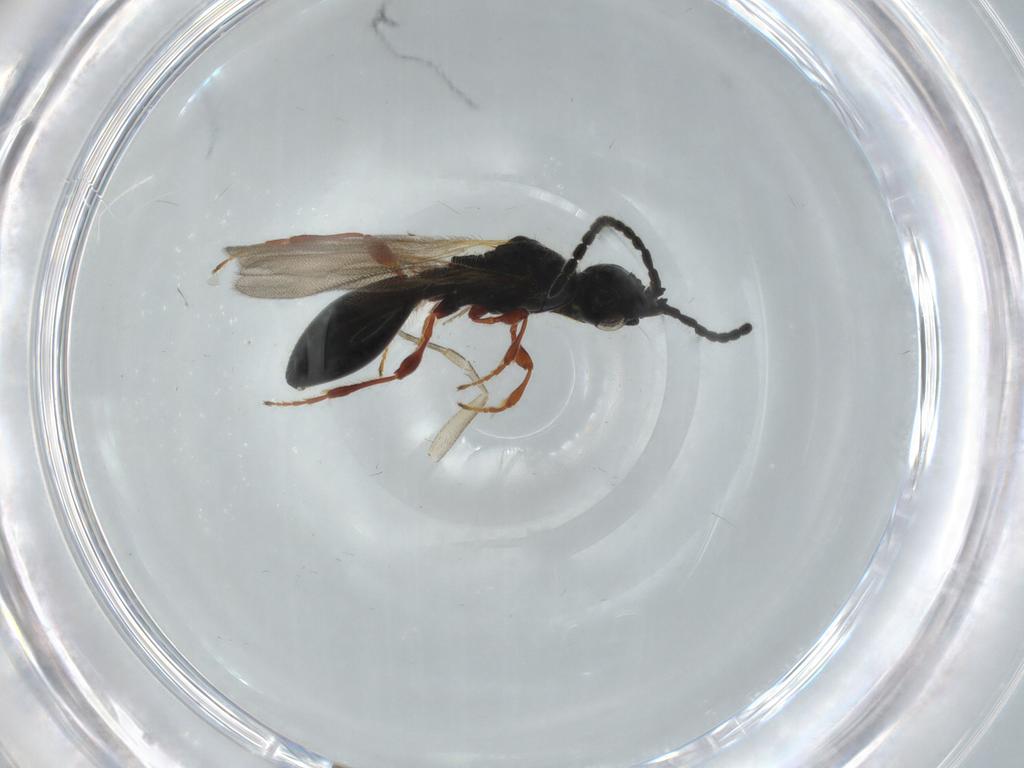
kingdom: Animalia
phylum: Arthropoda
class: Insecta
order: Hymenoptera
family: Diapriidae
